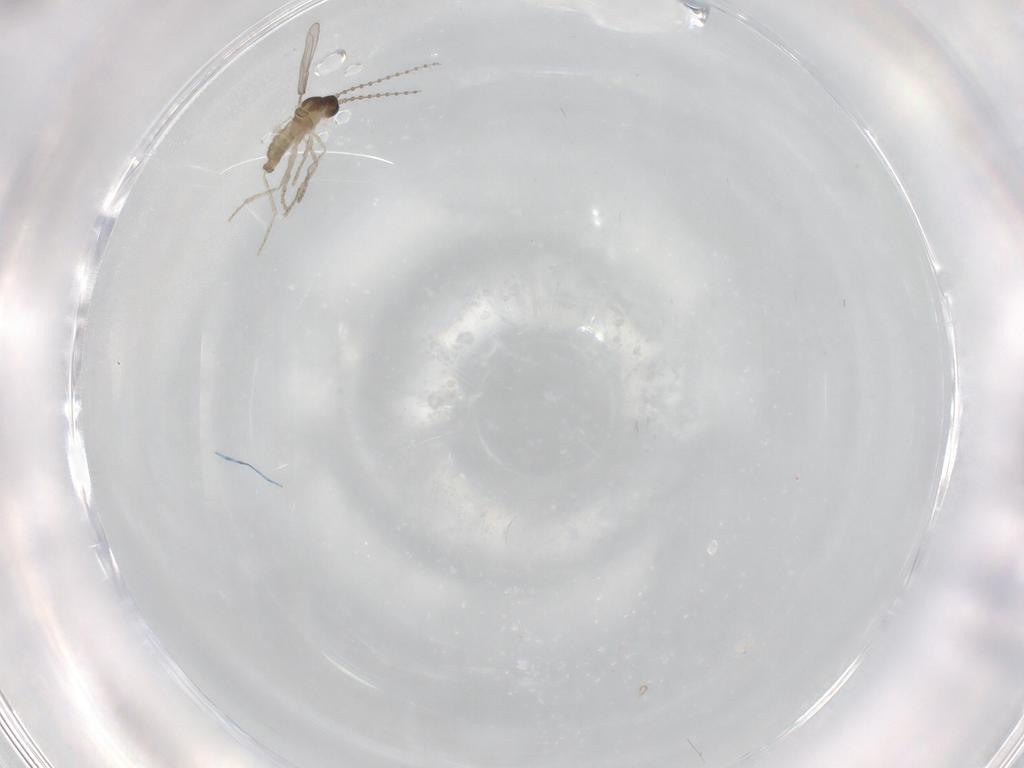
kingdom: Animalia
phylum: Arthropoda
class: Insecta
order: Diptera
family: Cecidomyiidae
